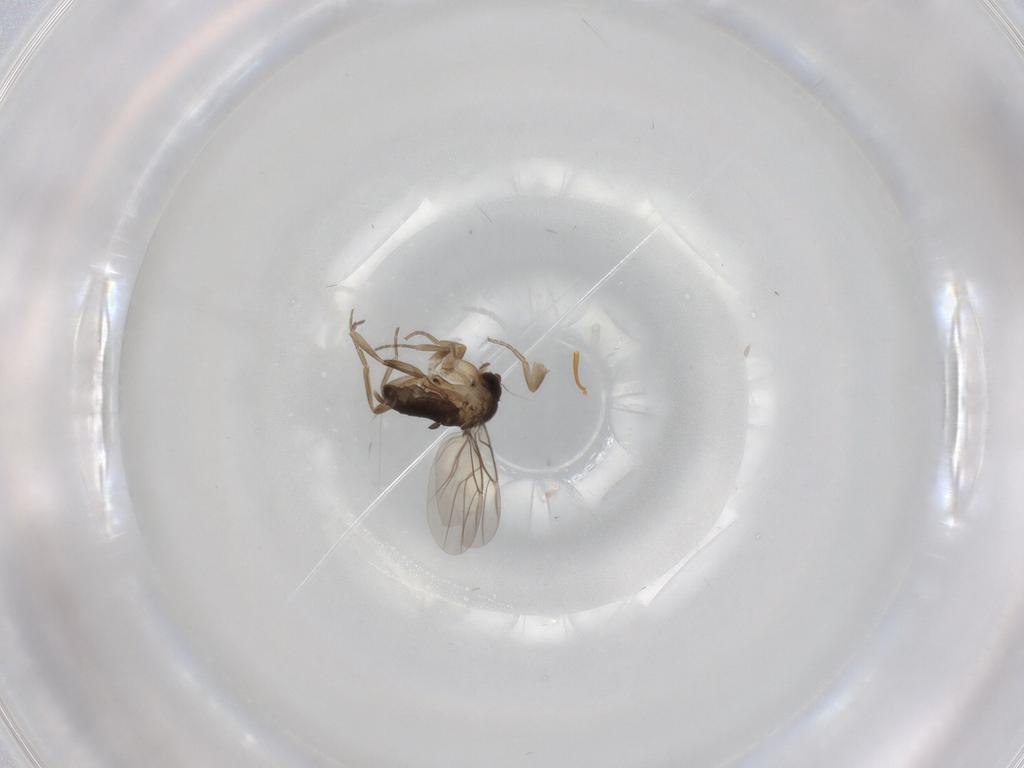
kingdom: Animalia
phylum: Arthropoda
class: Insecta
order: Diptera
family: Phoridae
